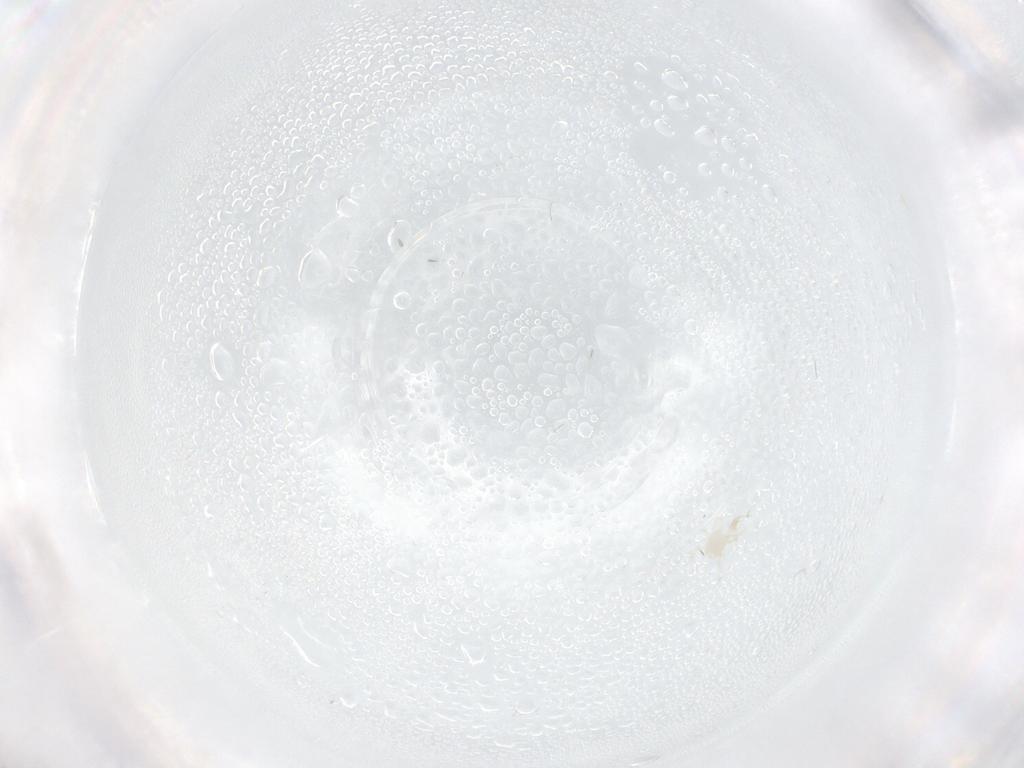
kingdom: Animalia
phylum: Arthropoda
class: Arachnida
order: Mesostigmata
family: Phytoseiidae
